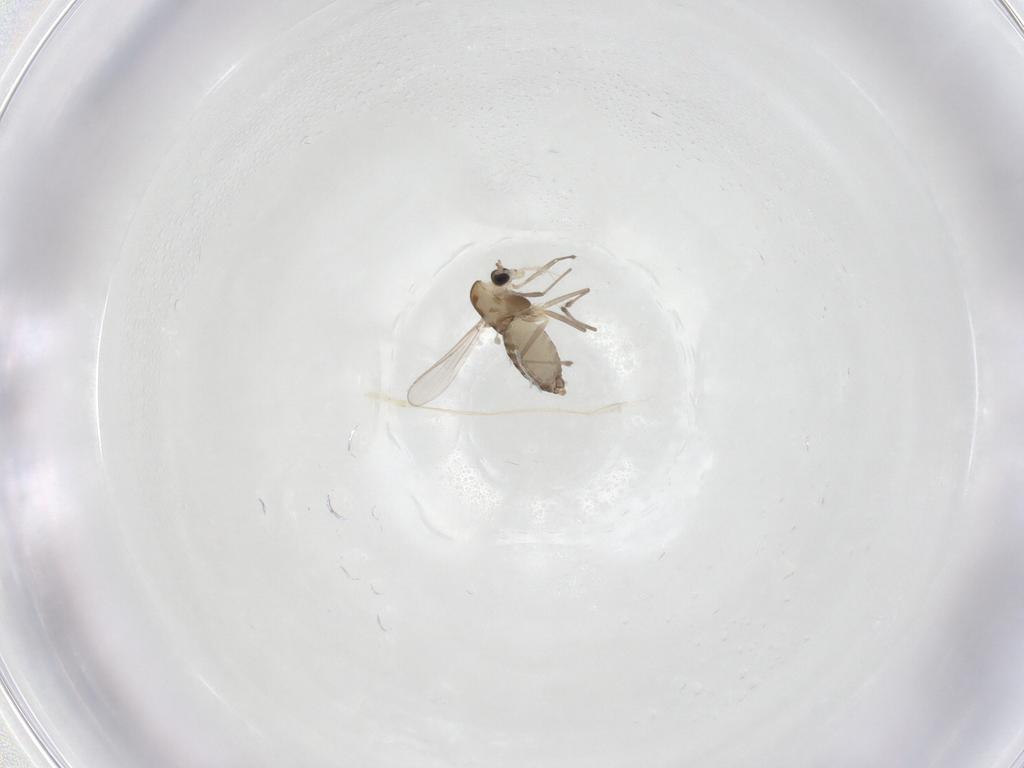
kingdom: Animalia
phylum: Arthropoda
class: Insecta
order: Diptera
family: Chironomidae
